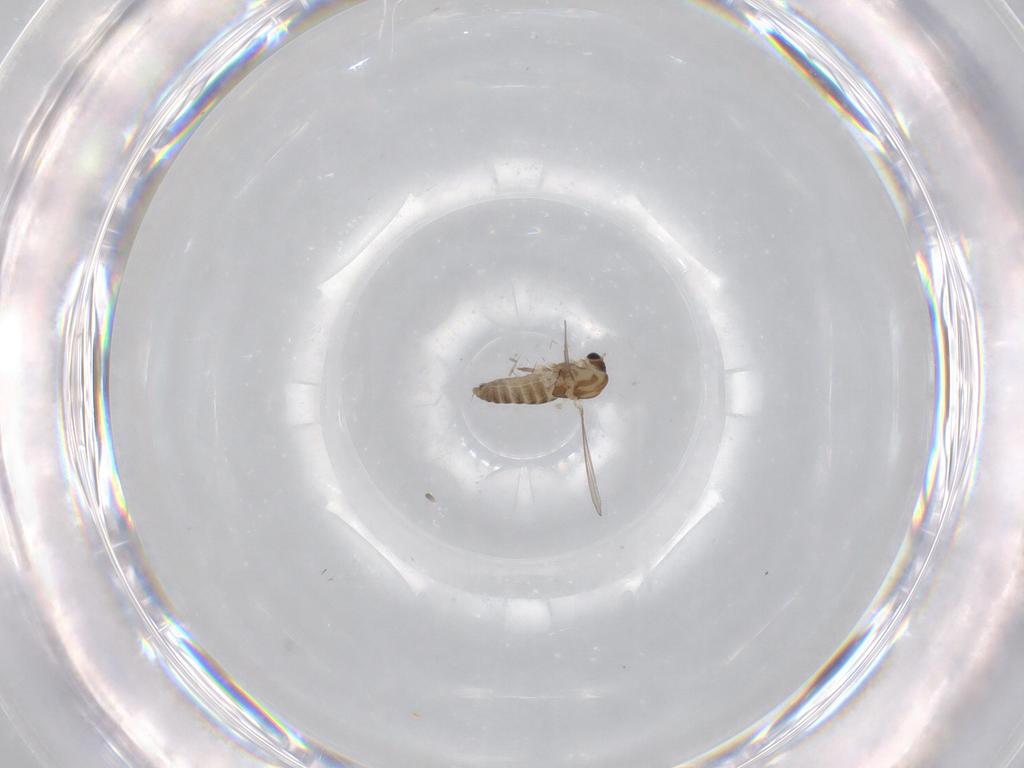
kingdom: Animalia
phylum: Arthropoda
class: Insecta
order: Diptera
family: Chironomidae
